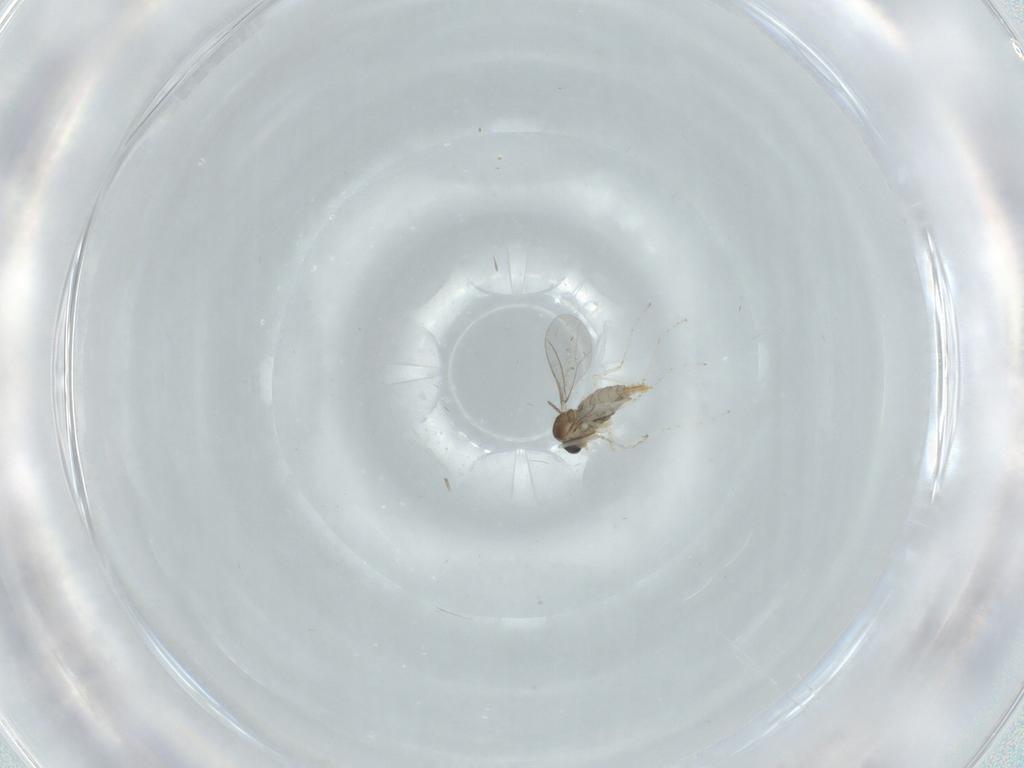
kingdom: Animalia
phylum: Arthropoda
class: Insecta
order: Diptera
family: Cecidomyiidae
